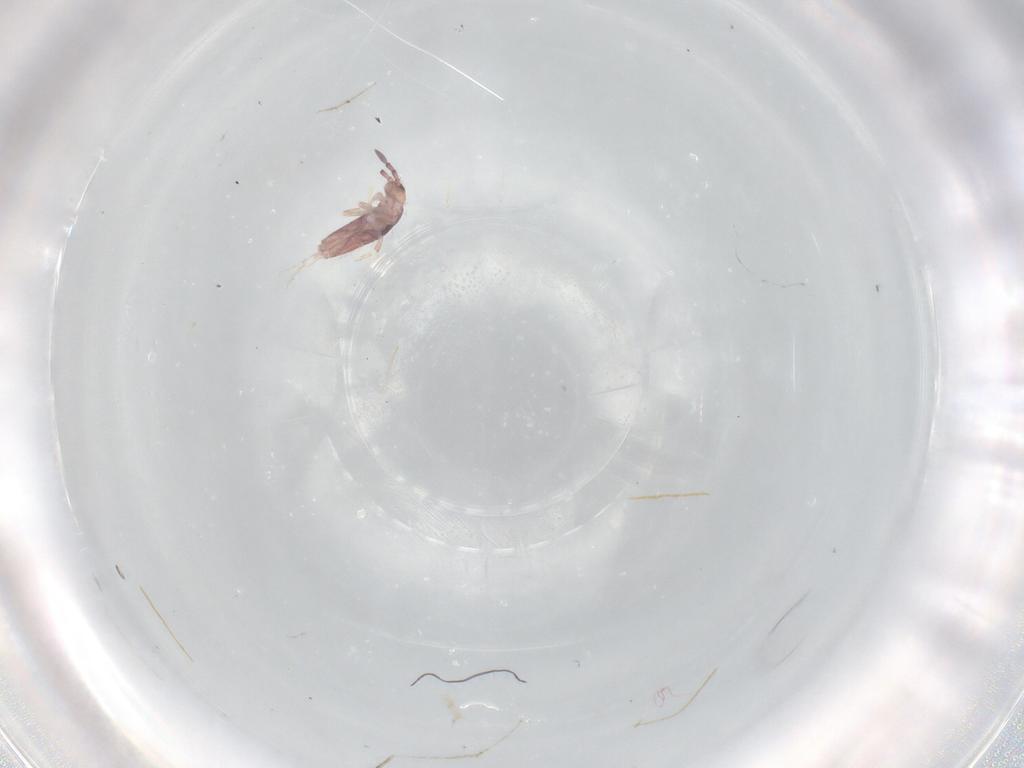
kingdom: Animalia
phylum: Arthropoda
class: Collembola
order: Entomobryomorpha
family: Entomobryidae
